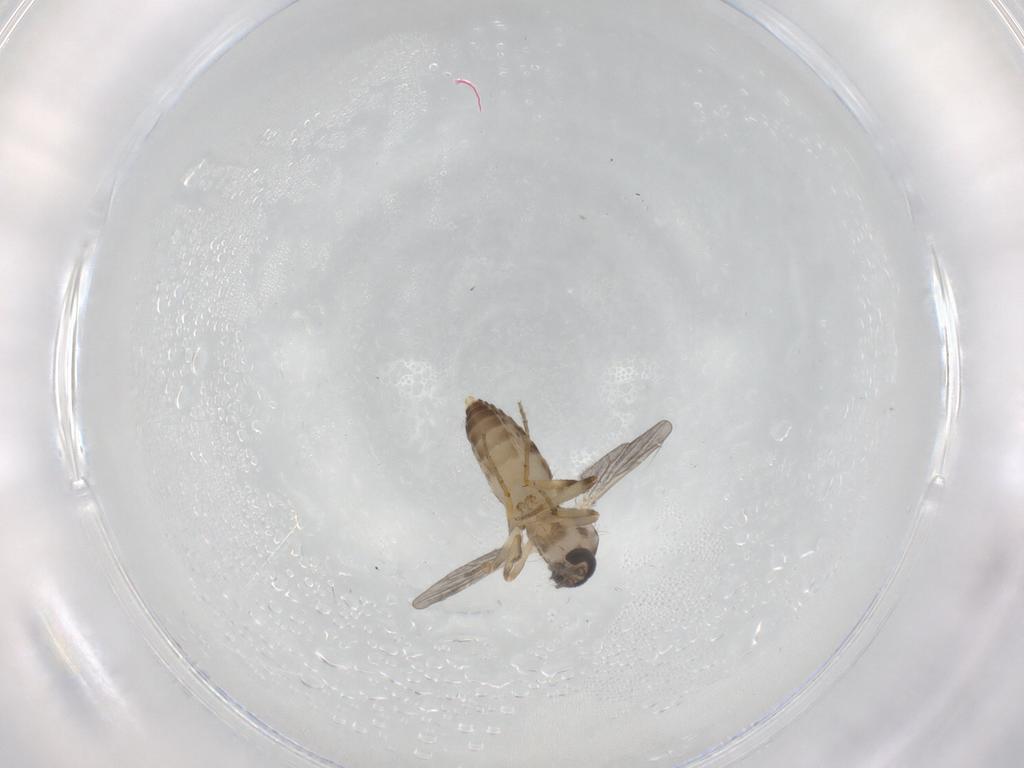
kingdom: Animalia
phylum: Arthropoda
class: Insecta
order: Diptera
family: Ceratopogonidae
